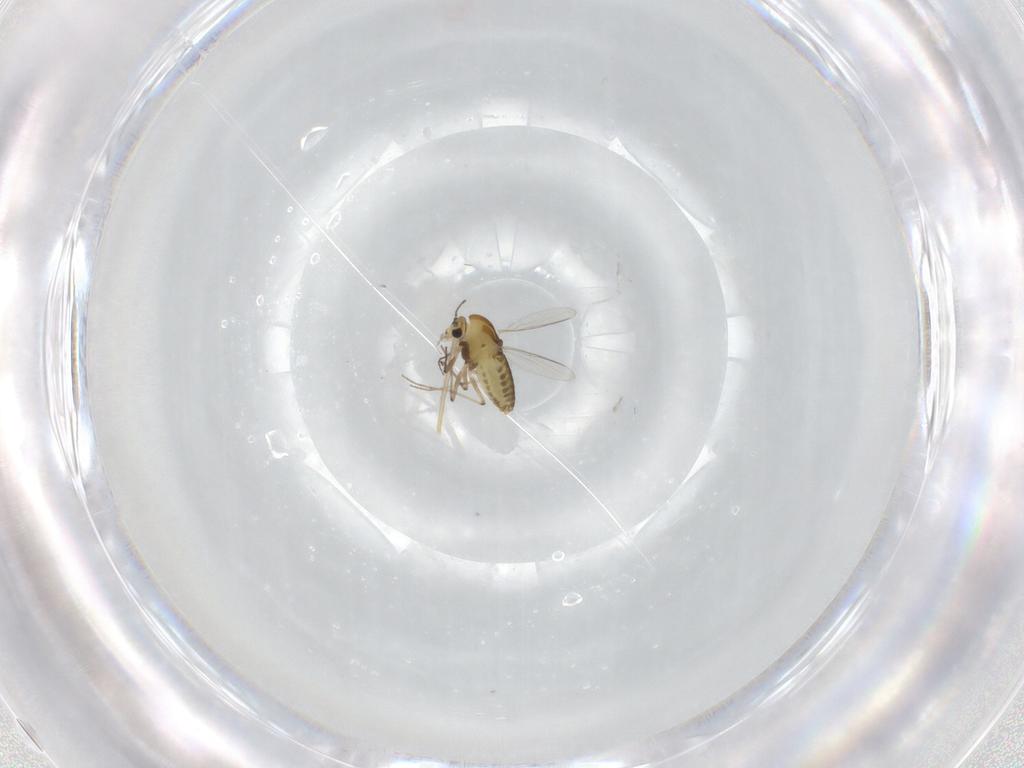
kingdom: Animalia
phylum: Arthropoda
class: Insecta
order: Diptera
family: Chironomidae
